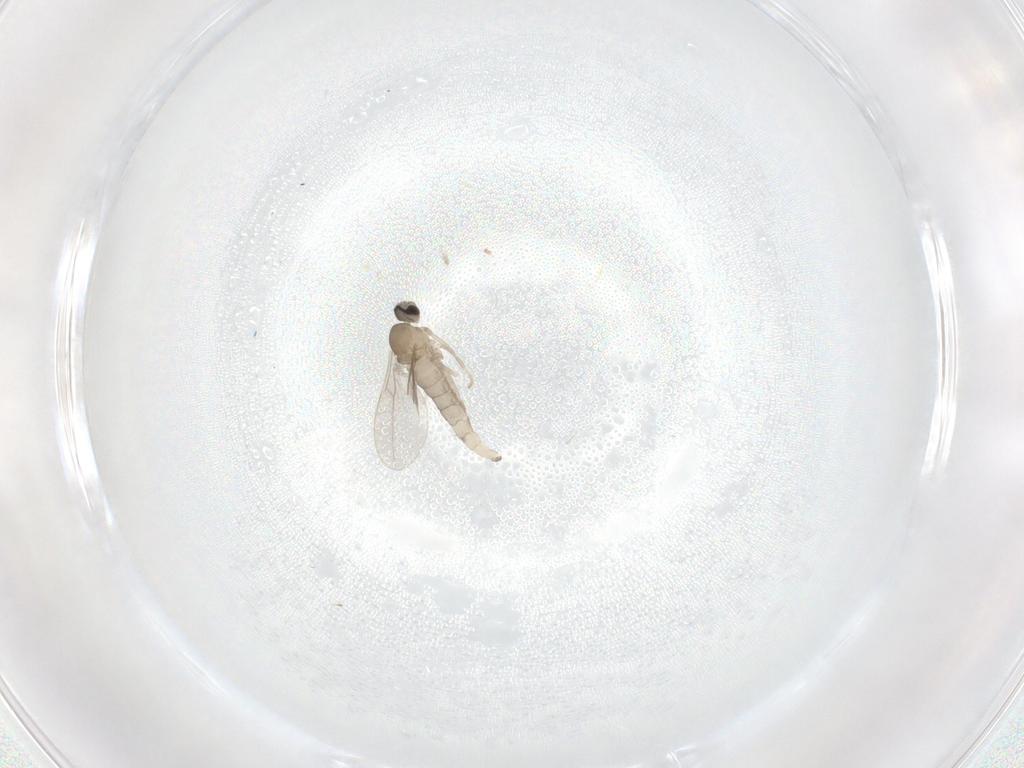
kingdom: Animalia
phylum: Arthropoda
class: Insecta
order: Diptera
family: Cecidomyiidae
